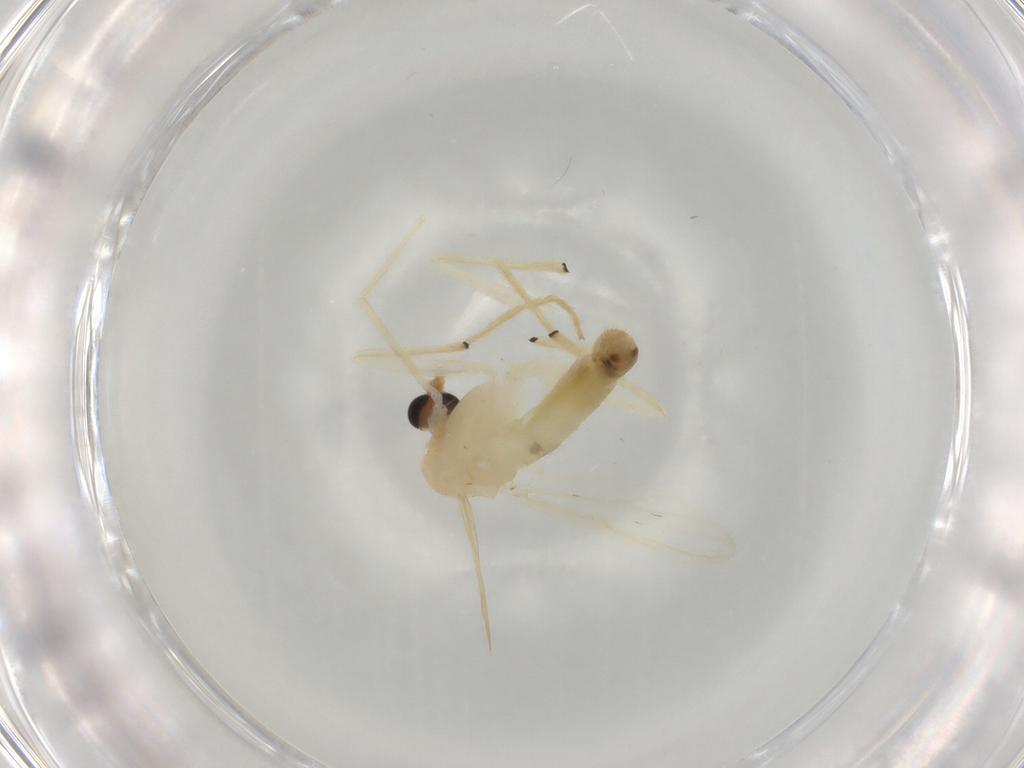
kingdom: Animalia
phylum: Arthropoda
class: Insecta
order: Diptera
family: Chironomidae
